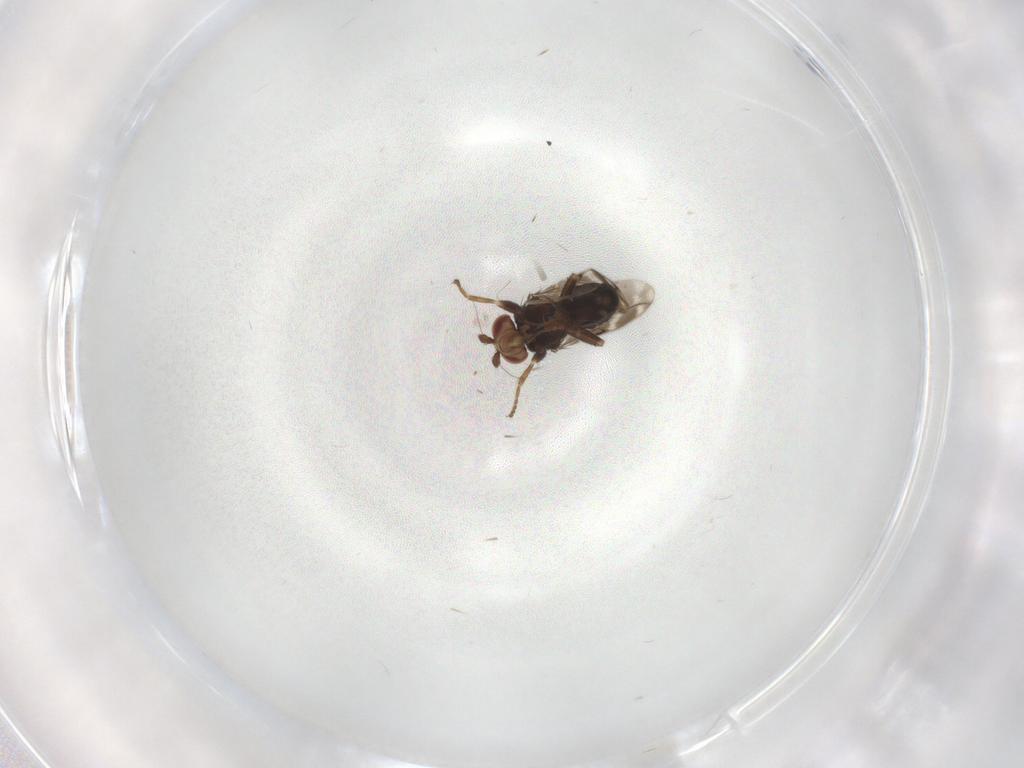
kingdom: Animalia
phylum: Arthropoda
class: Insecta
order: Diptera
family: Sphaeroceridae
